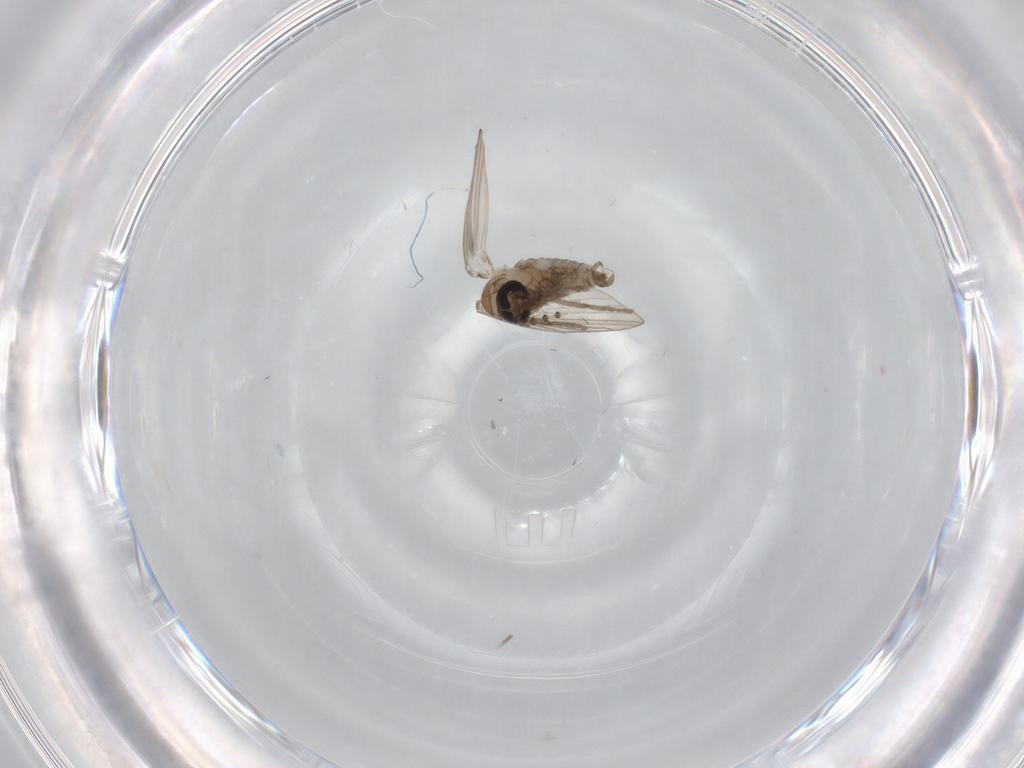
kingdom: Animalia
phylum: Arthropoda
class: Insecta
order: Diptera
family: Psychodidae
